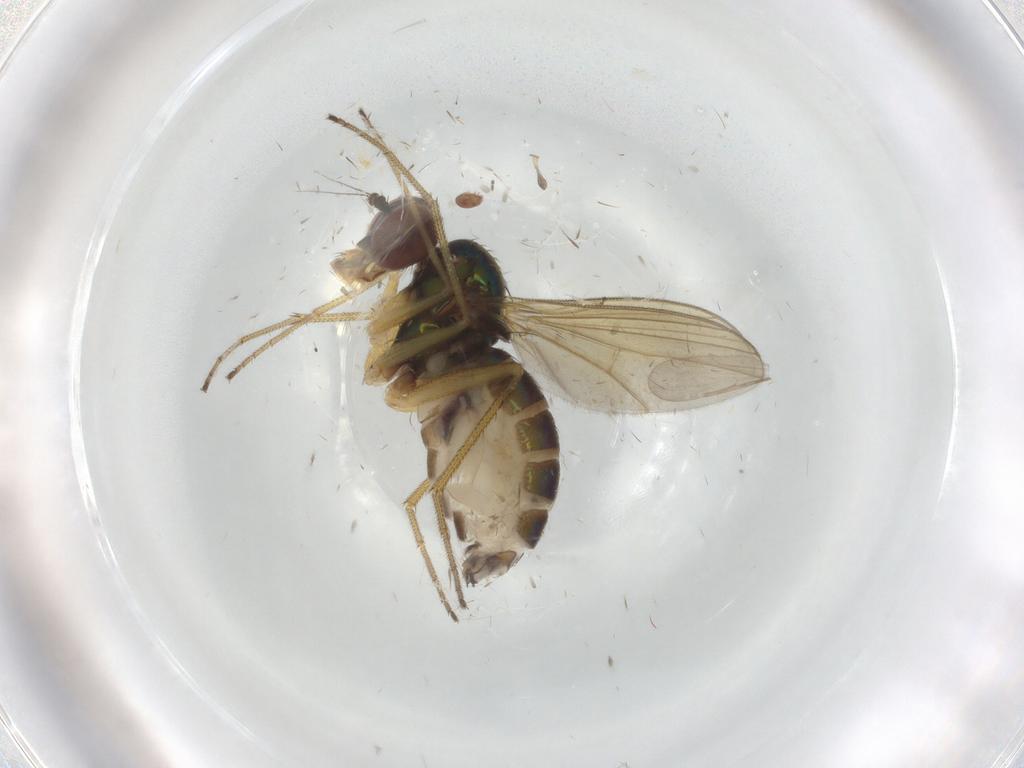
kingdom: Animalia
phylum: Arthropoda
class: Insecta
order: Diptera
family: Dolichopodidae
